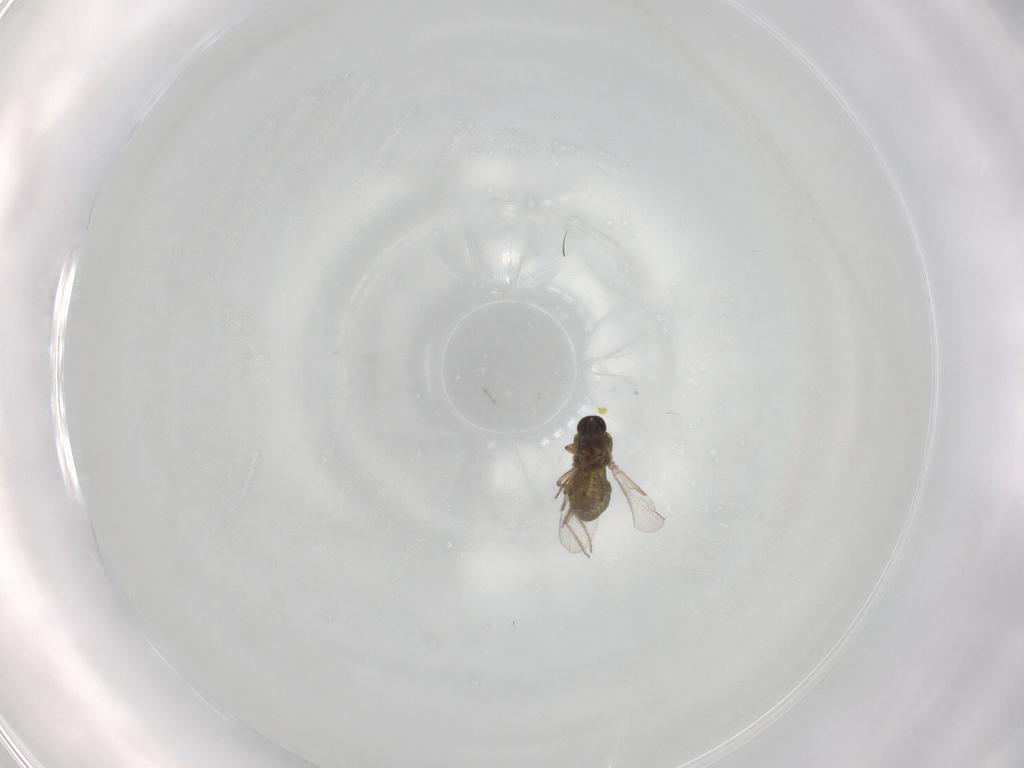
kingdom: Animalia
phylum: Arthropoda
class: Insecta
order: Diptera
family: Ceratopogonidae
